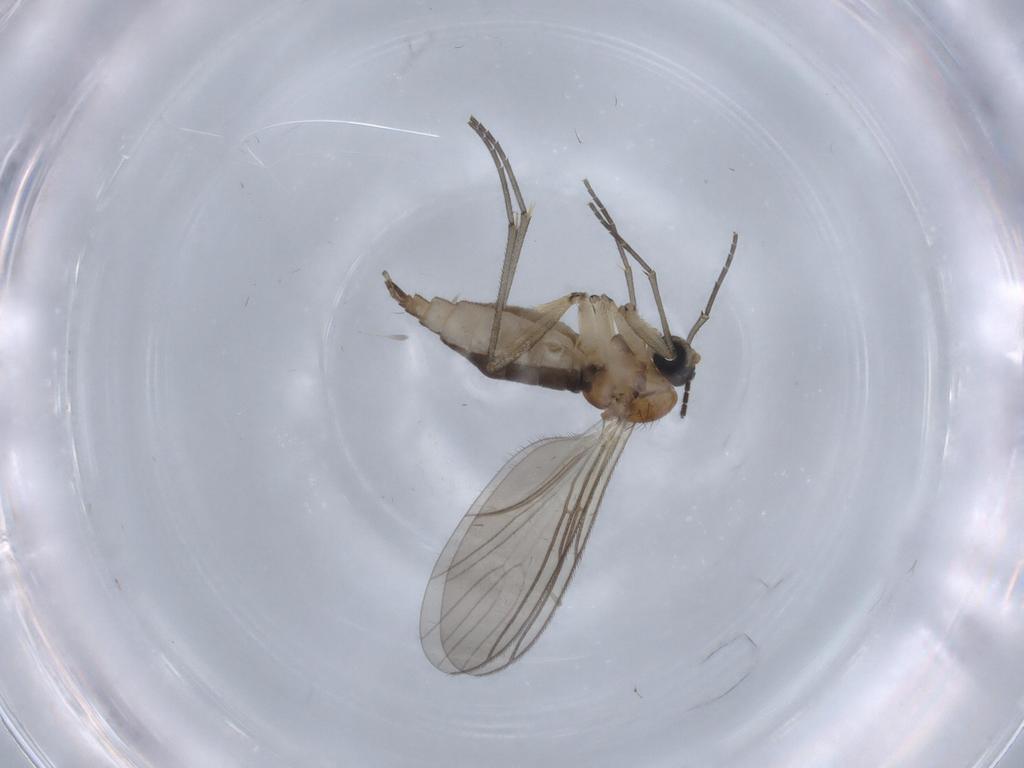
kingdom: Animalia
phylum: Arthropoda
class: Insecta
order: Diptera
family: Sciaridae
